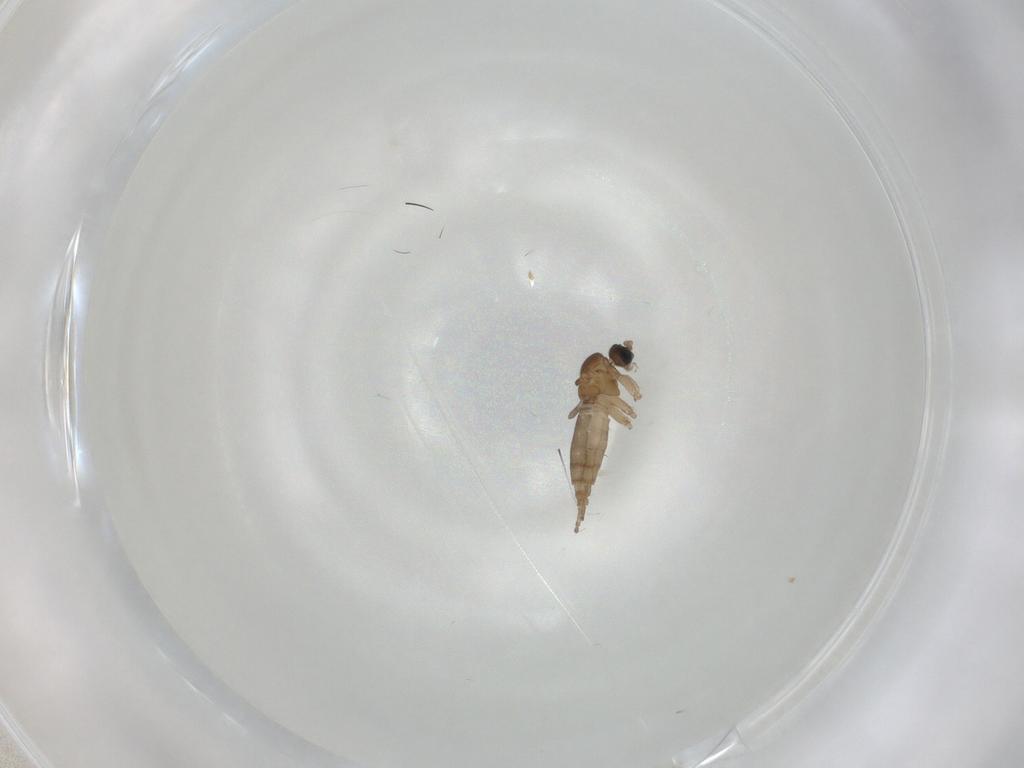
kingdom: Animalia
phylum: Arthropoda
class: Insecta
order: Diptera
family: Sciaridae
